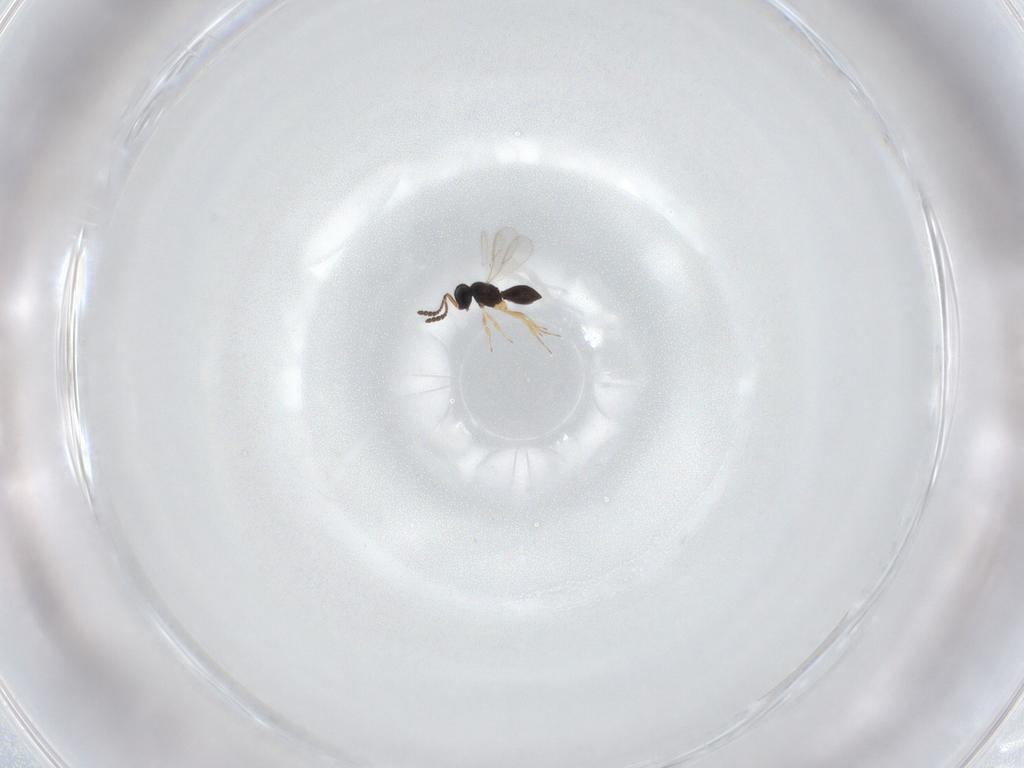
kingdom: Animalia
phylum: Arthropoda
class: Insecta
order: Hymenoptera
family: Scelionidae
